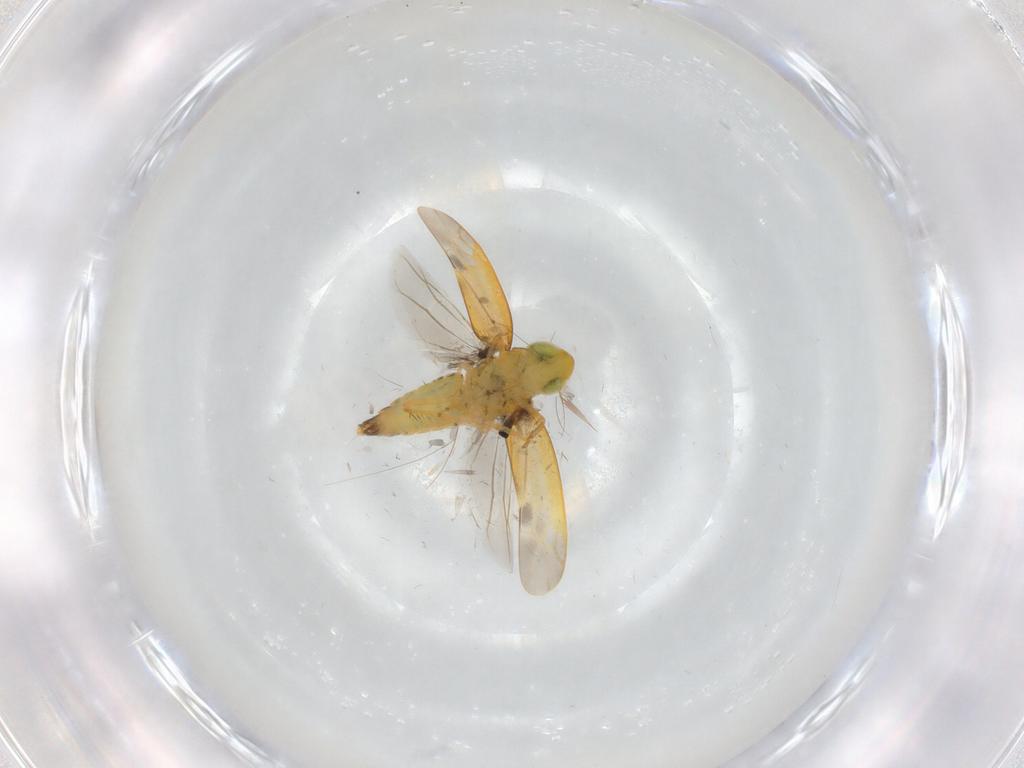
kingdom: Animalia
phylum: Arthropoda
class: Insecta
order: Hemiptera
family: Cicadellidae
